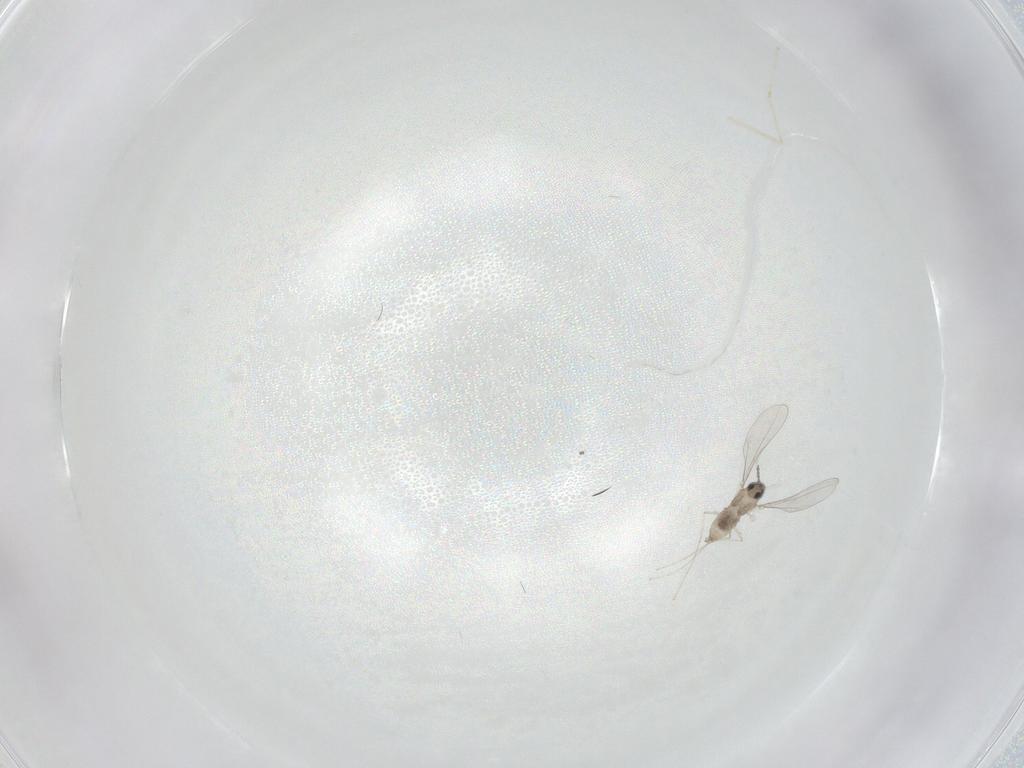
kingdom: Animalia
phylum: Arthropoda
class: Insecta
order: Diptera
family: Cecidomyiidae
